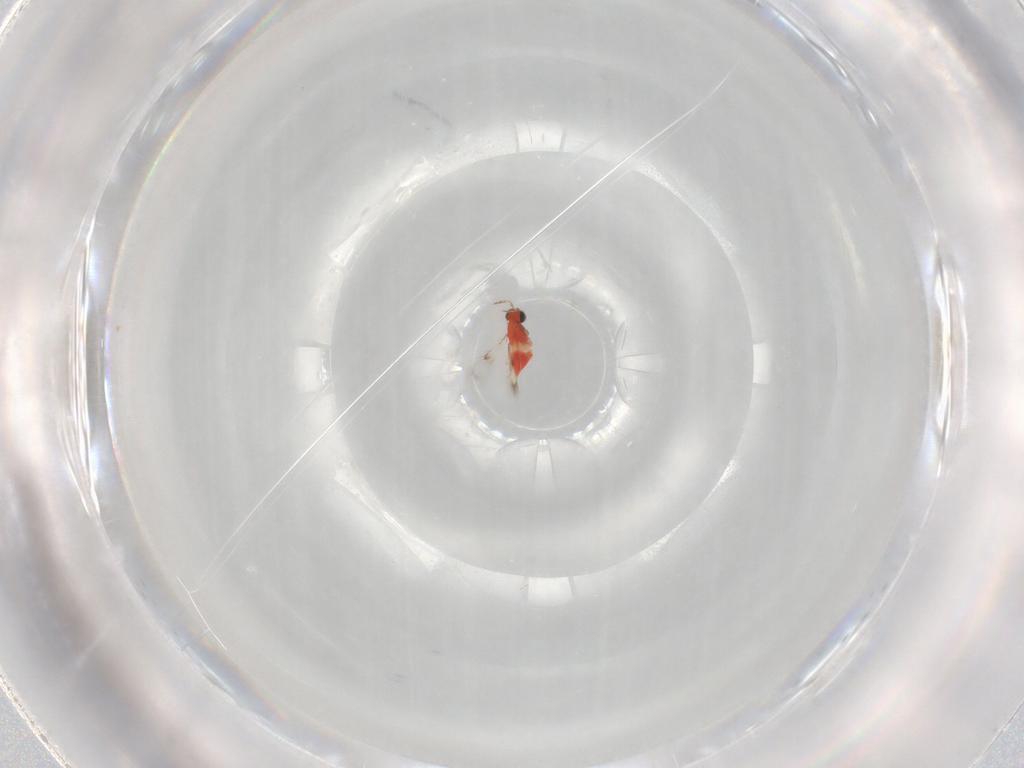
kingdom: Animalia
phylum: Arthropoda
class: Insecta
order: Hymenoptera
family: Trichogrammatidae
